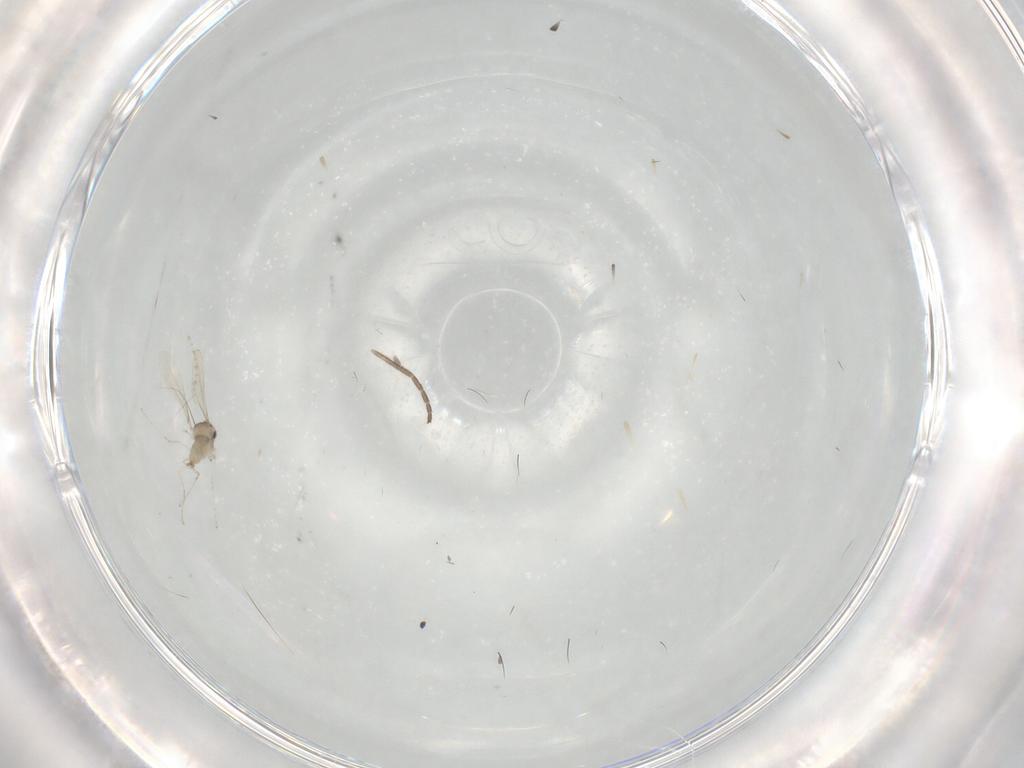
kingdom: Animalia
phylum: Arthropoda
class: Insecta
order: Diptera
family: Cecidomyiidae
